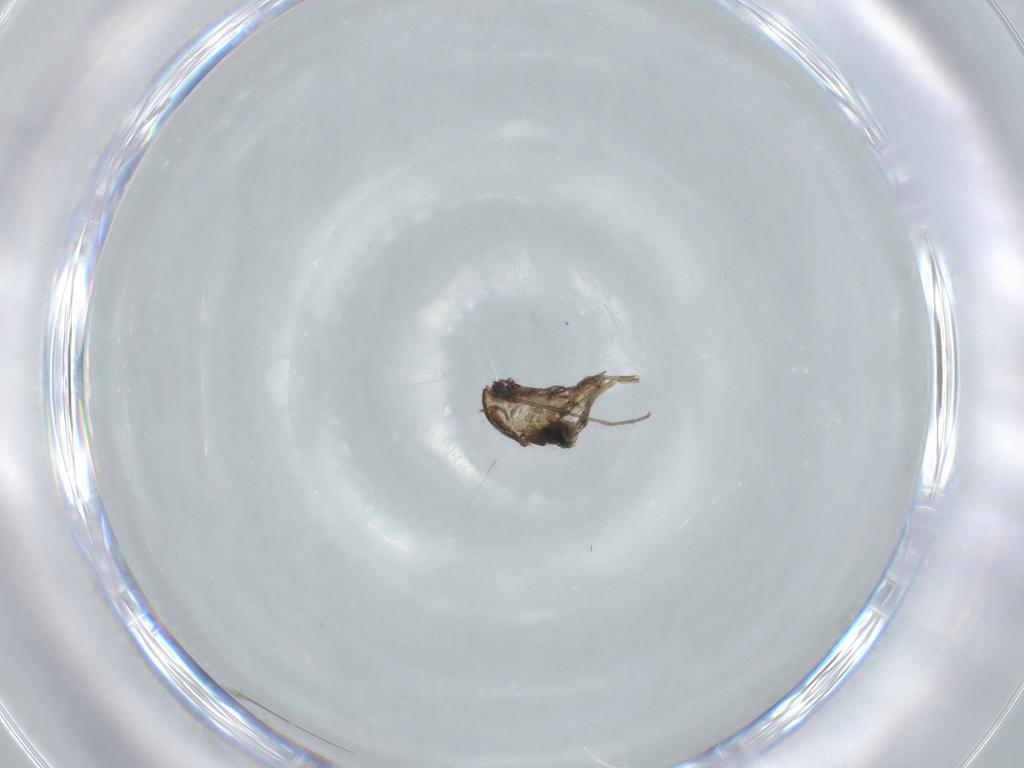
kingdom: Animalia
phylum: Arthropoda
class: Insecta
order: Diptera
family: Chironomidae
